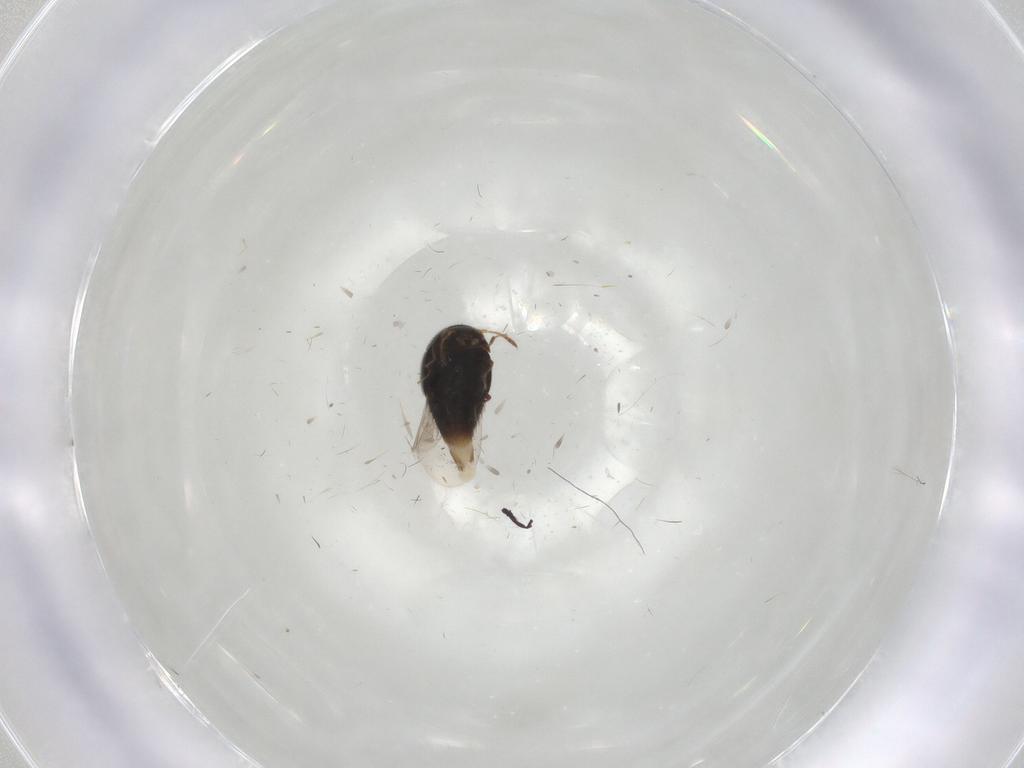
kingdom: Animalia
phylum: Arthropoda
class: Insecta
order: Coleoptera
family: Staphylinidae
